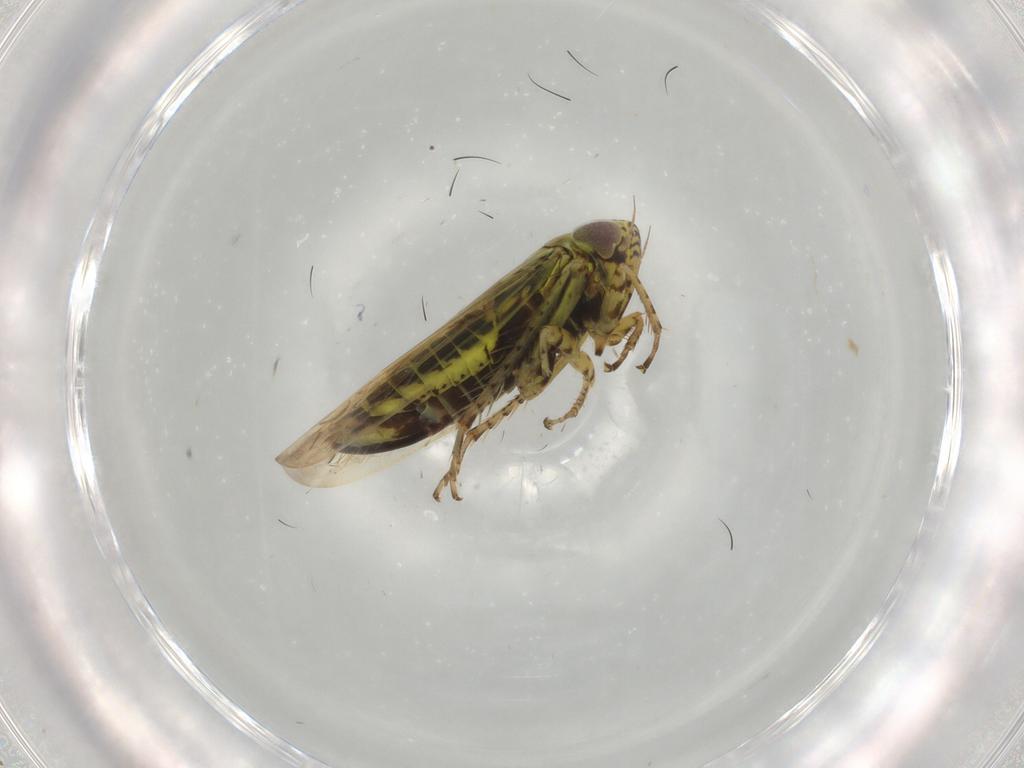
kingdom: Animalia
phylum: Arthropoda
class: Insecta
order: Hemiptera
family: Cicadellidae
